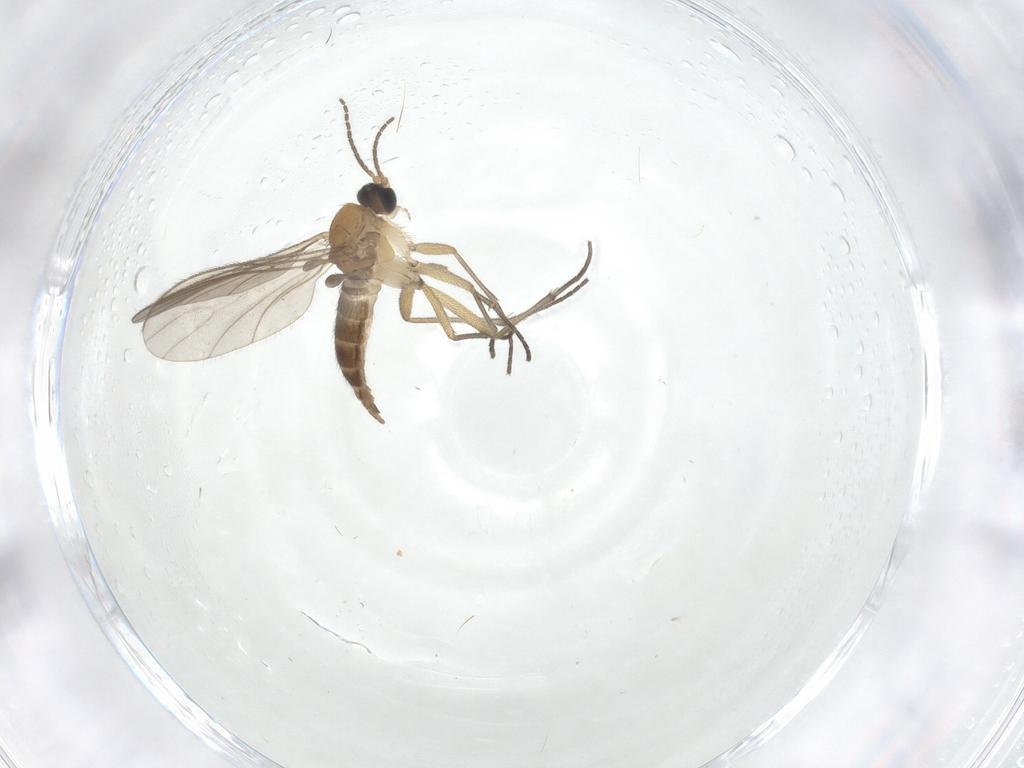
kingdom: Animalia
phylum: Arthropoda
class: Insecta
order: Diptera
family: Sciaridae
